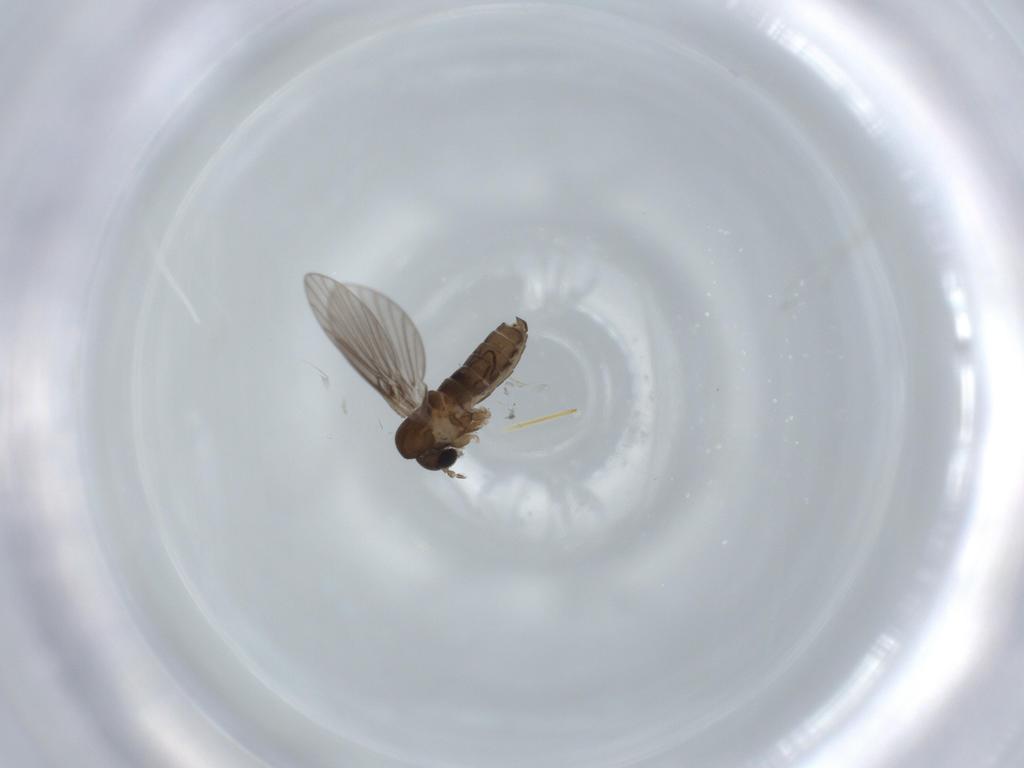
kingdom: Animalia
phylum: Arthropoda
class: Insecta
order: Diptera
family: Psychodidae
